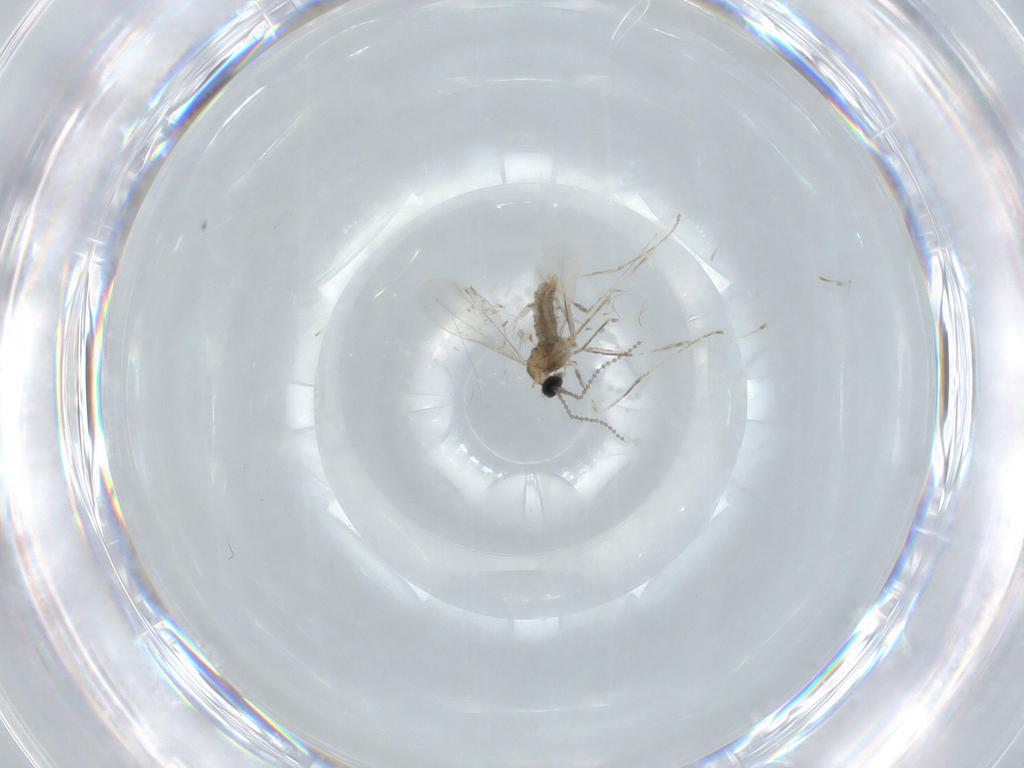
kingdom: Animalia
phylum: Arthropoda
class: Insecta
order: Diptera
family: Cecidomyiidae
